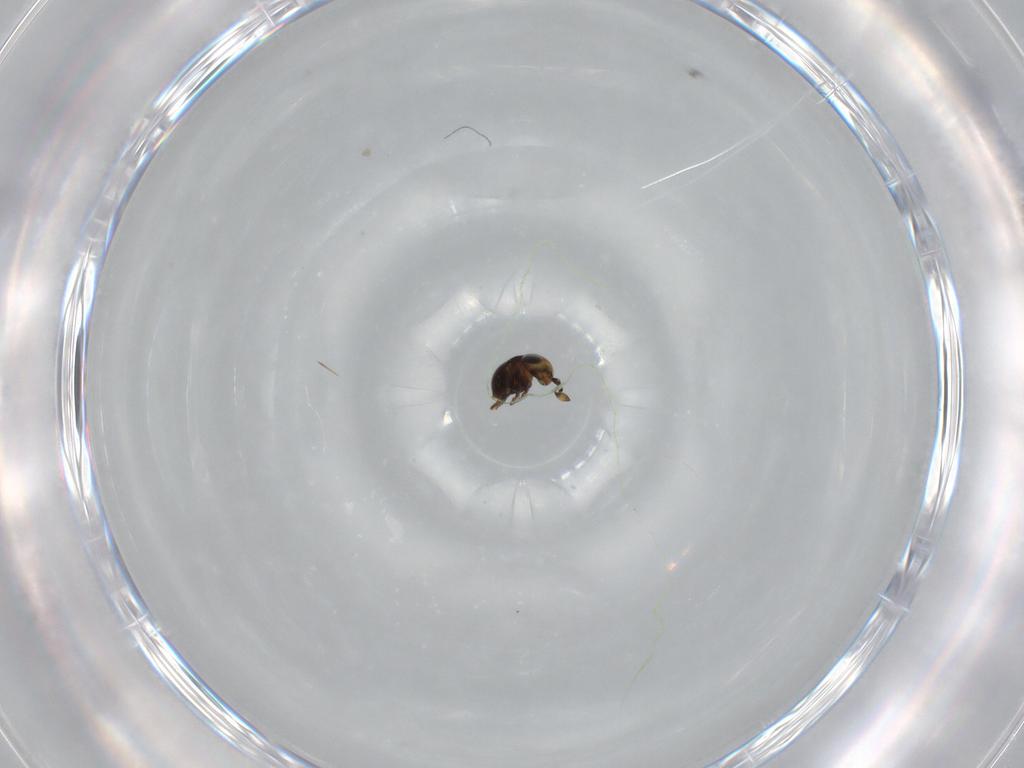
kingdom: Animalia
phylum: Arthropoda
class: Insecta
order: Hymenoptera
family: Scelionidae
